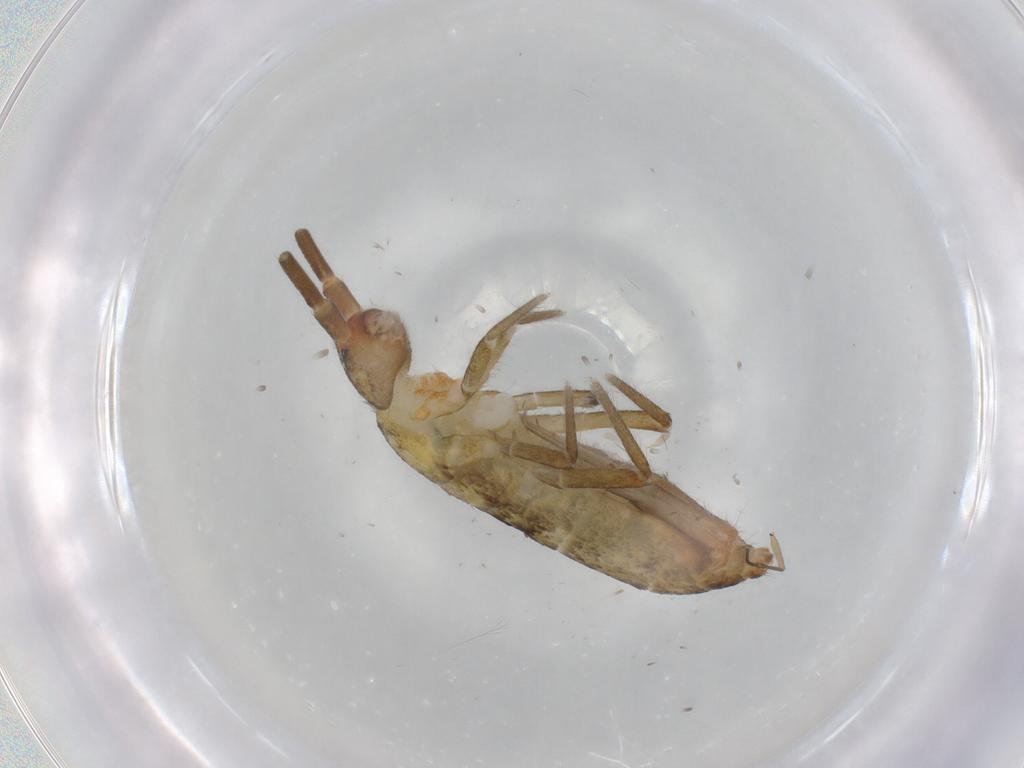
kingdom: Animalia
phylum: Arthropoda
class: Collembola
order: Entomobryomorpha
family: Tomoceridae
